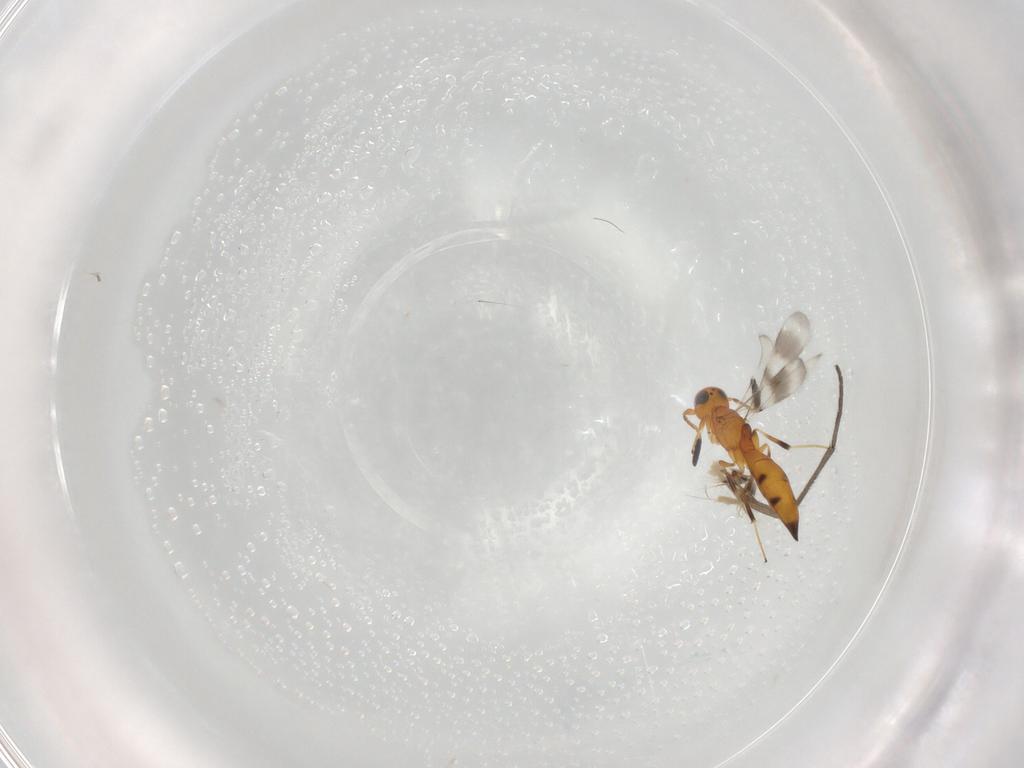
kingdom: Animalia
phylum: Arthropoda
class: Insecta
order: Hymenoptera
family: Scelionidae
